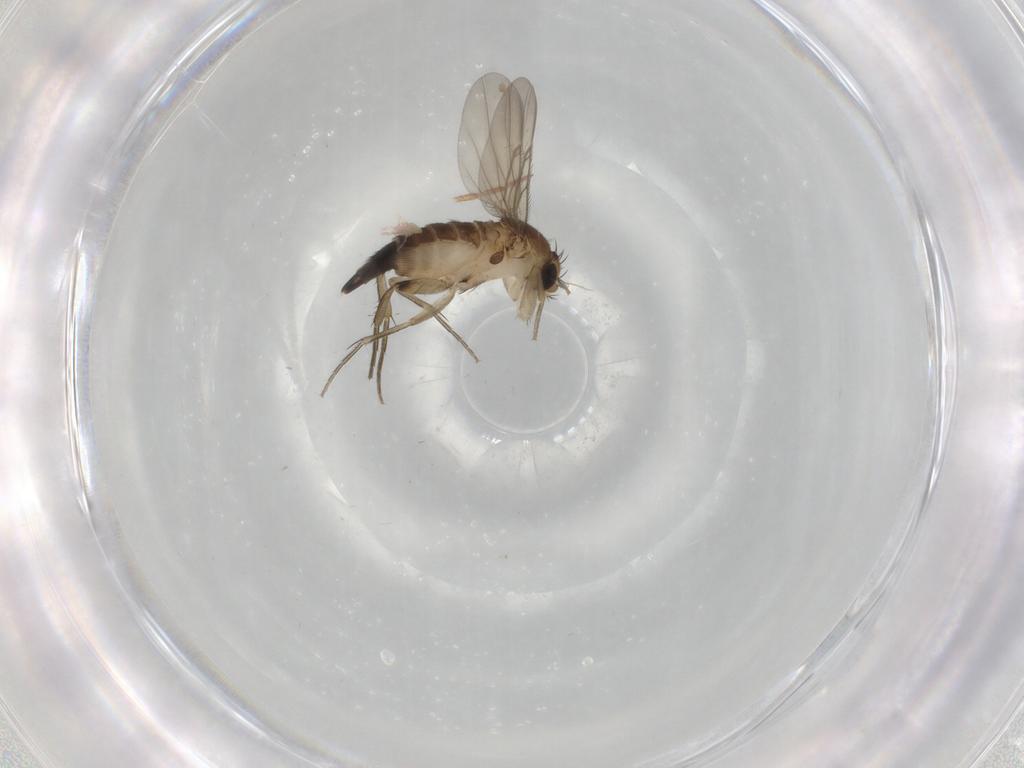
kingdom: Animalia
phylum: Arthropoda
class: Insecta
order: Diptera
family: Phoridae
